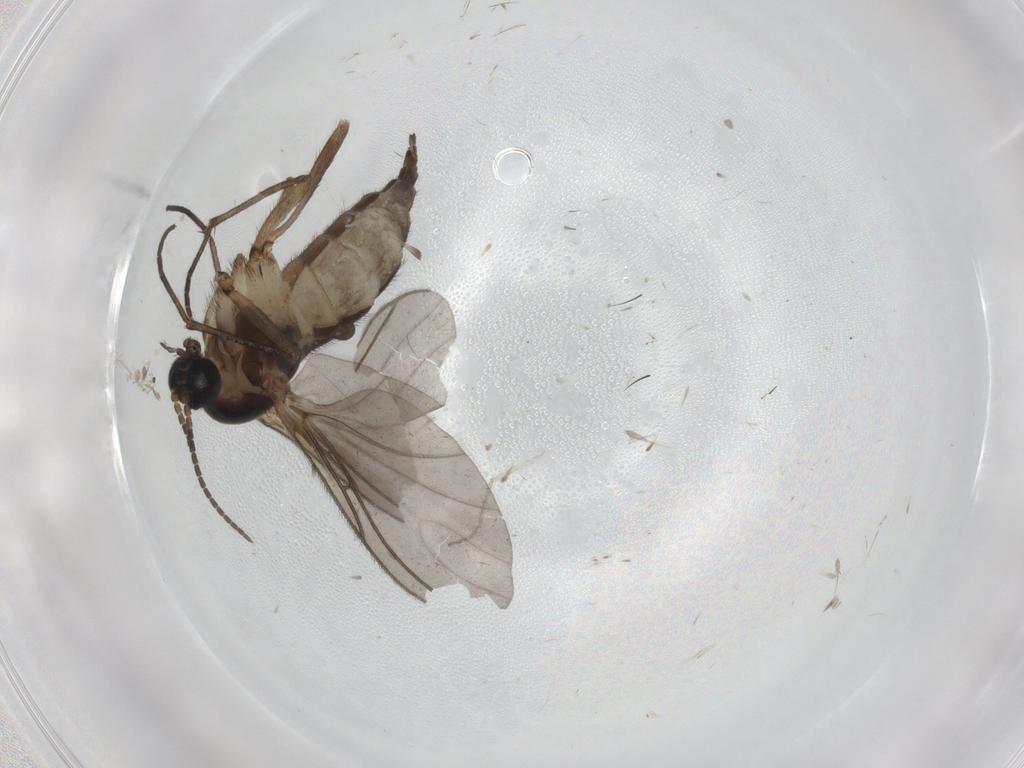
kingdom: Animalia
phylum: Arthropoda
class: Insecta
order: Diptera
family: Sciaridae
